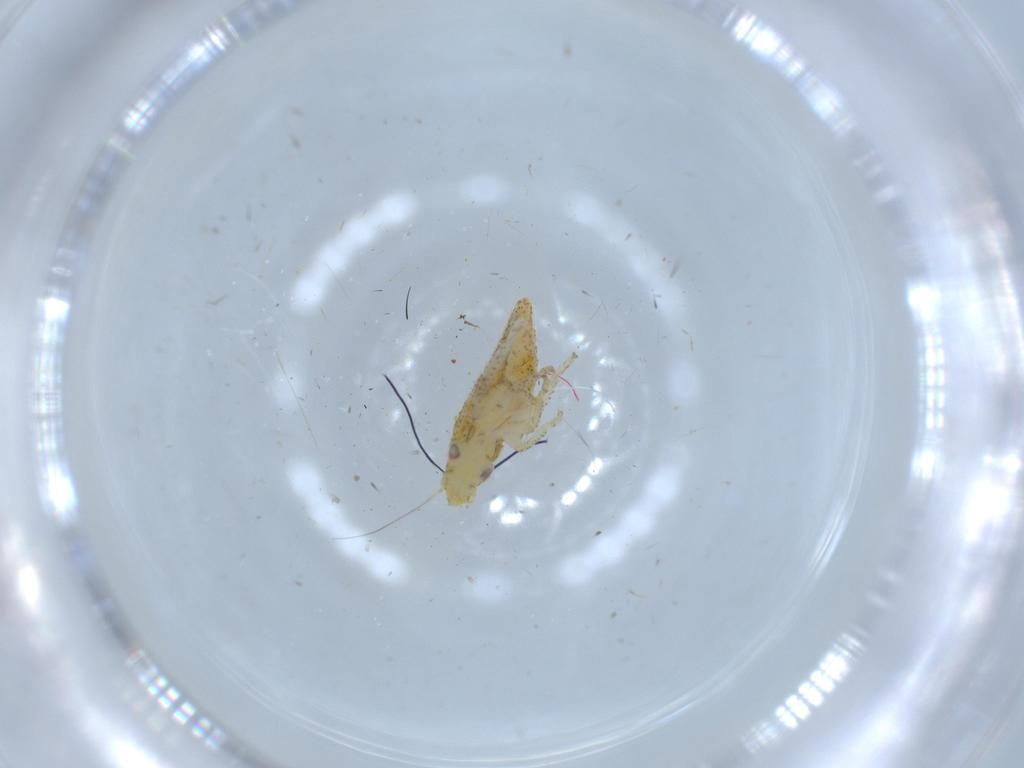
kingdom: Animalia
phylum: Arthropoda
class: Insecta
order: Hemiptera
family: Cicadellidae
